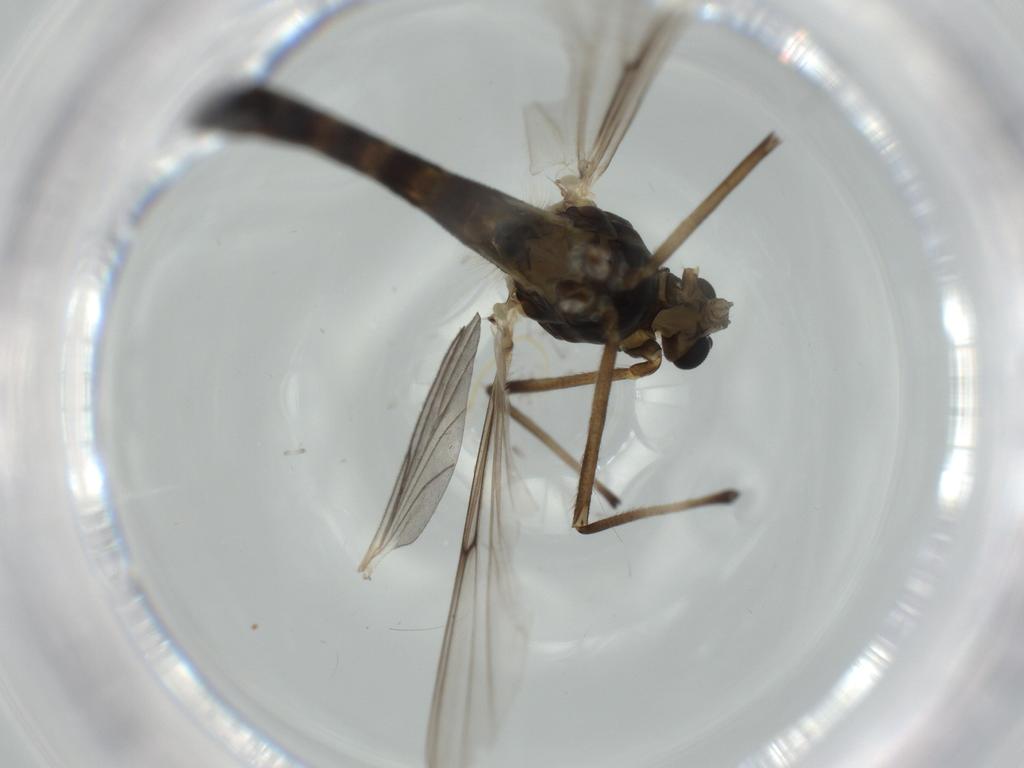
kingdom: Animalia
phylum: Arthropoda
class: Insecta
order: Diptera
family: Chironomidae
